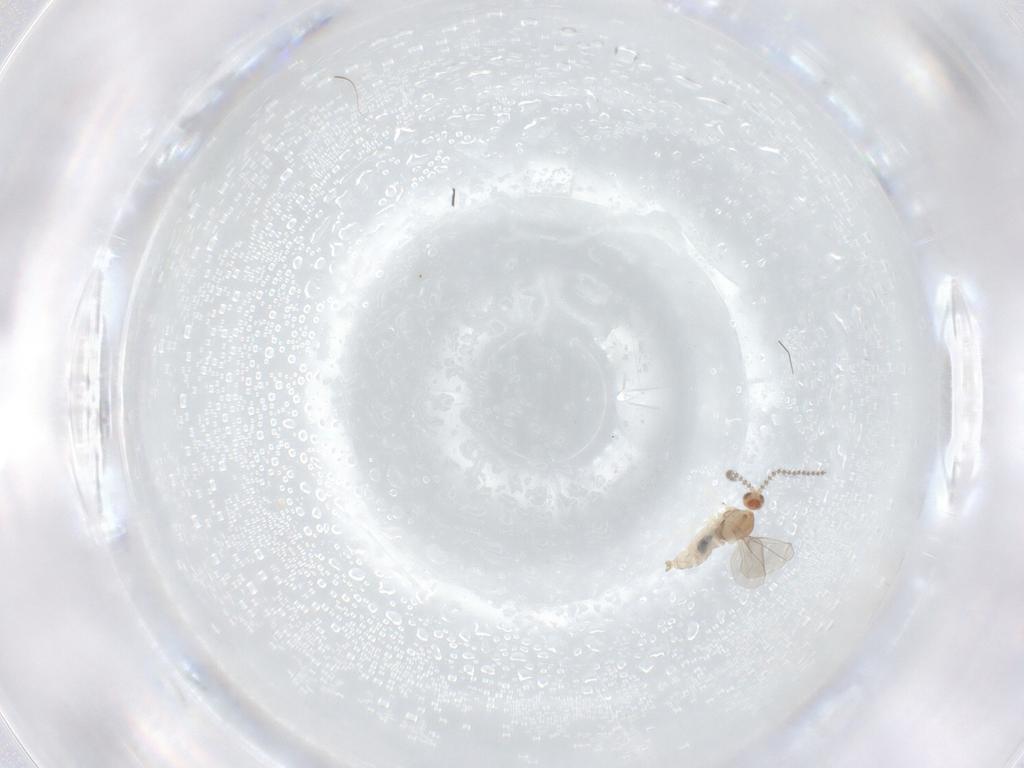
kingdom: Animalia
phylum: Arthropoda
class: Insecta
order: Diptera
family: Cecidomyiidae
